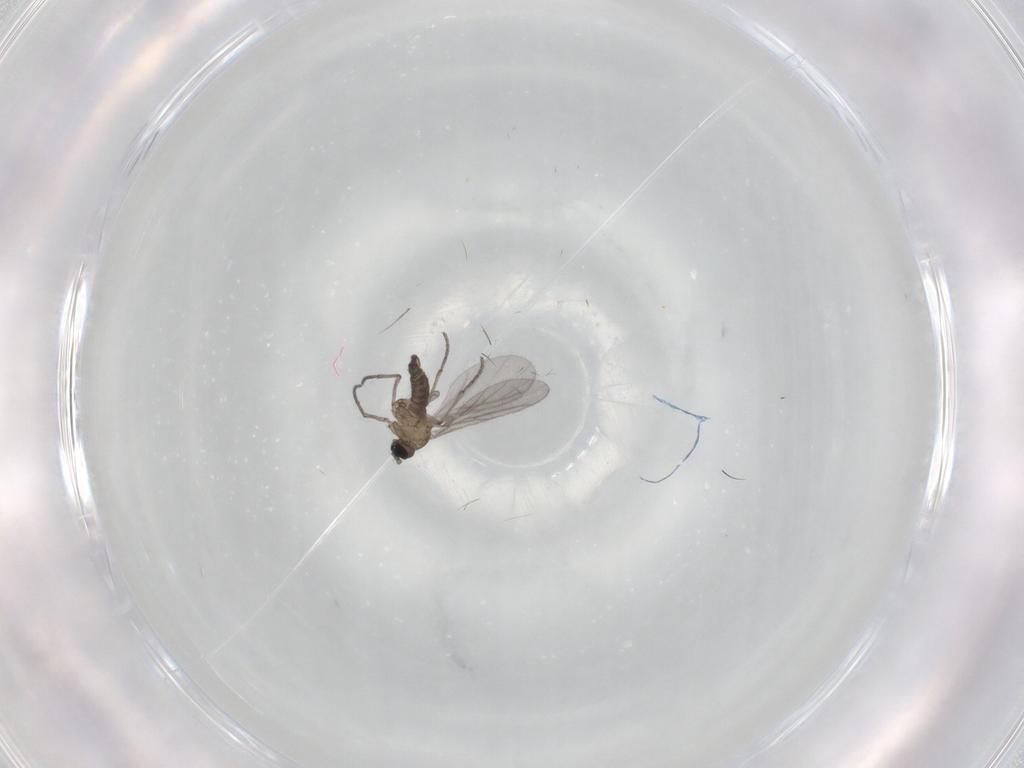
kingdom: Animalia
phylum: Arthropoda
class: Insecta
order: Diptera
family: Sciaridae
